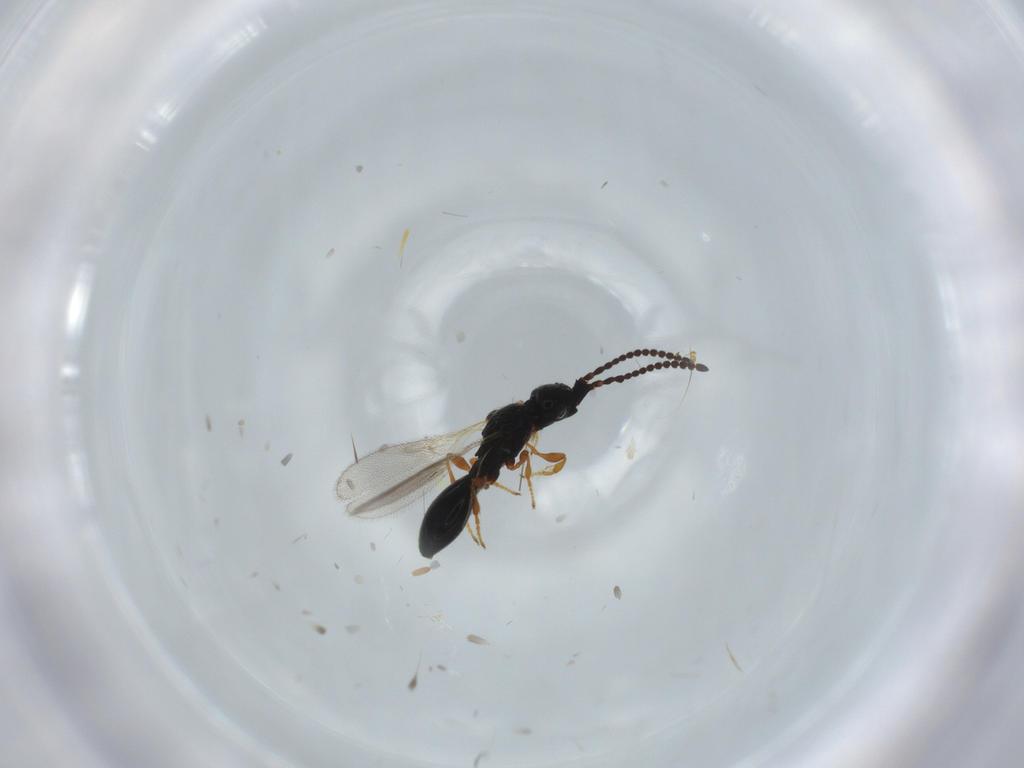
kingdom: Animalia
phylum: Arthropoda
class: Insecta
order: Hymenoptera
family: Diapriidae
